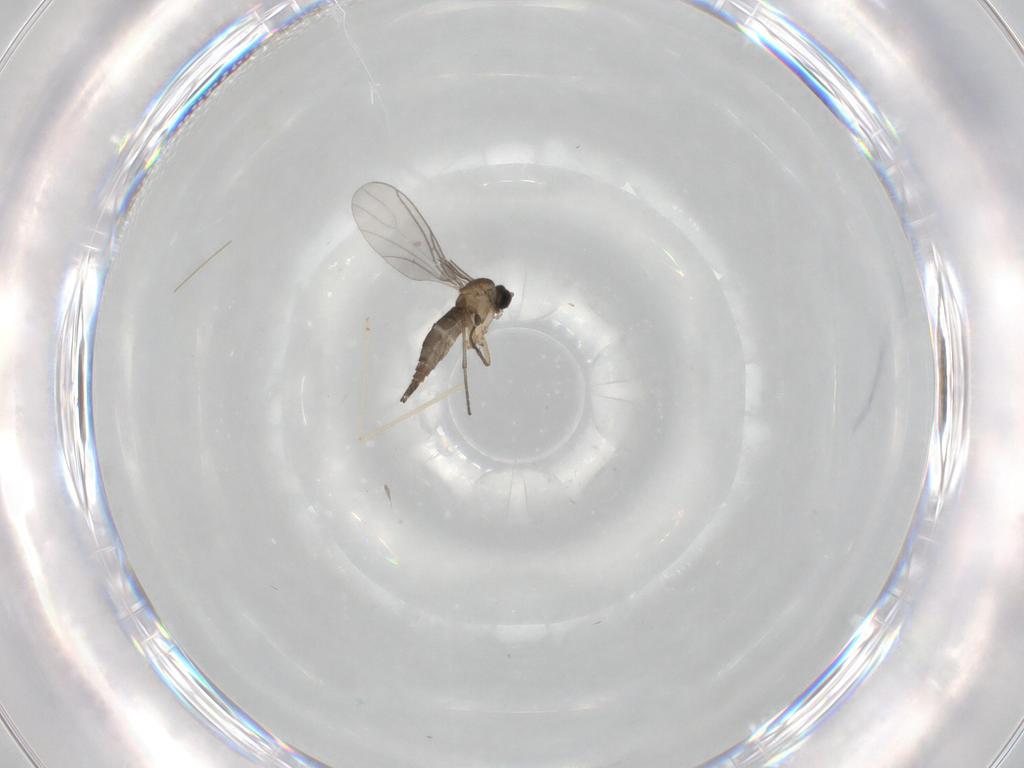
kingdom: Animalia
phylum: Arthropoda
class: Insecta
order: Diptera
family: Sciaridae
